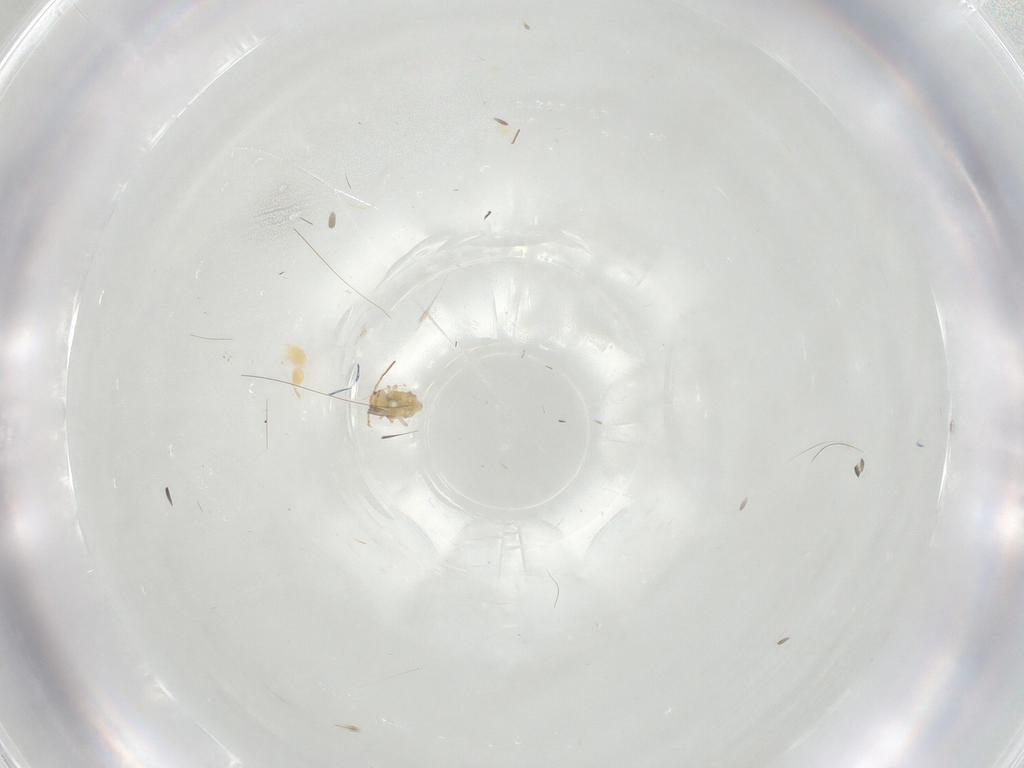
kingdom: Animalia
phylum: Arthropoda
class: Arachnida
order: Trombidiformes
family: Eupodidae
